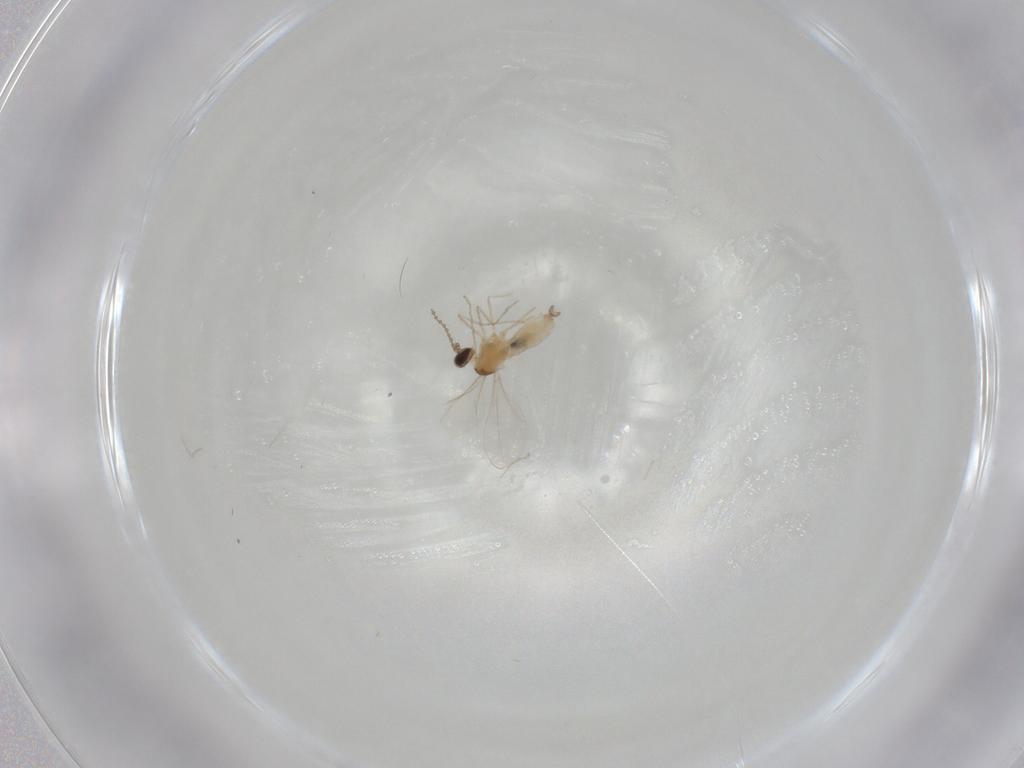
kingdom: Animalia
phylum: Arthropoda
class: Insecta
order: Diptera
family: Cecidomyiidae
